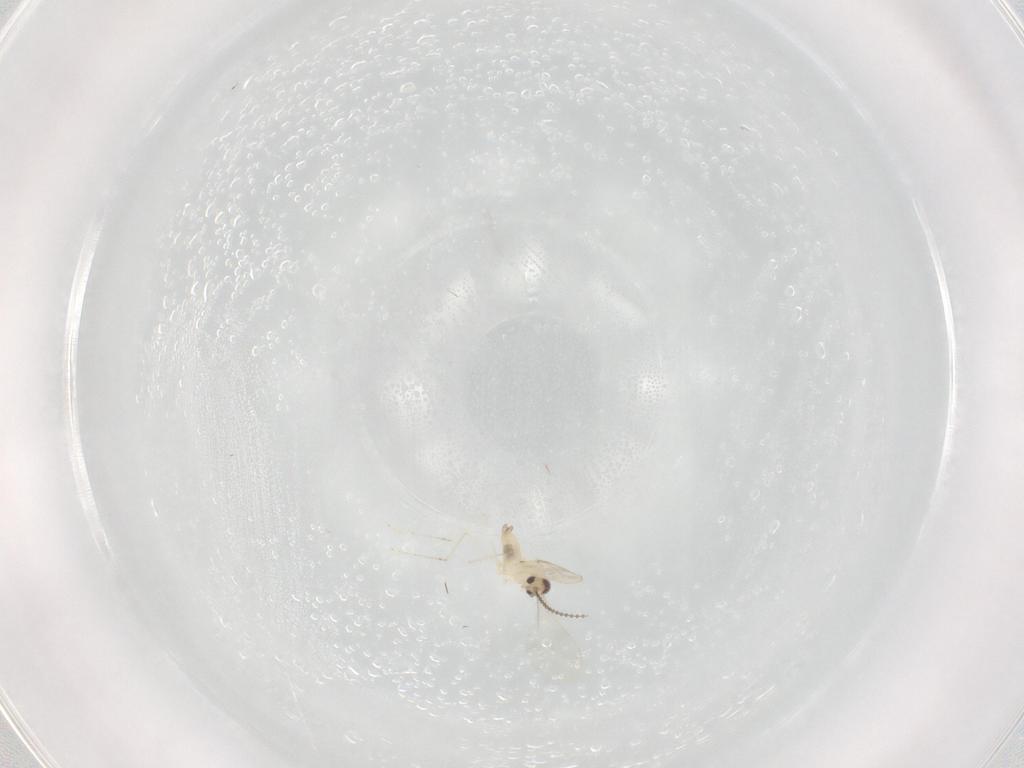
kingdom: Animalia
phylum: Arthropoda
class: Insecta
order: Diptera
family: Cecidomyiidae
